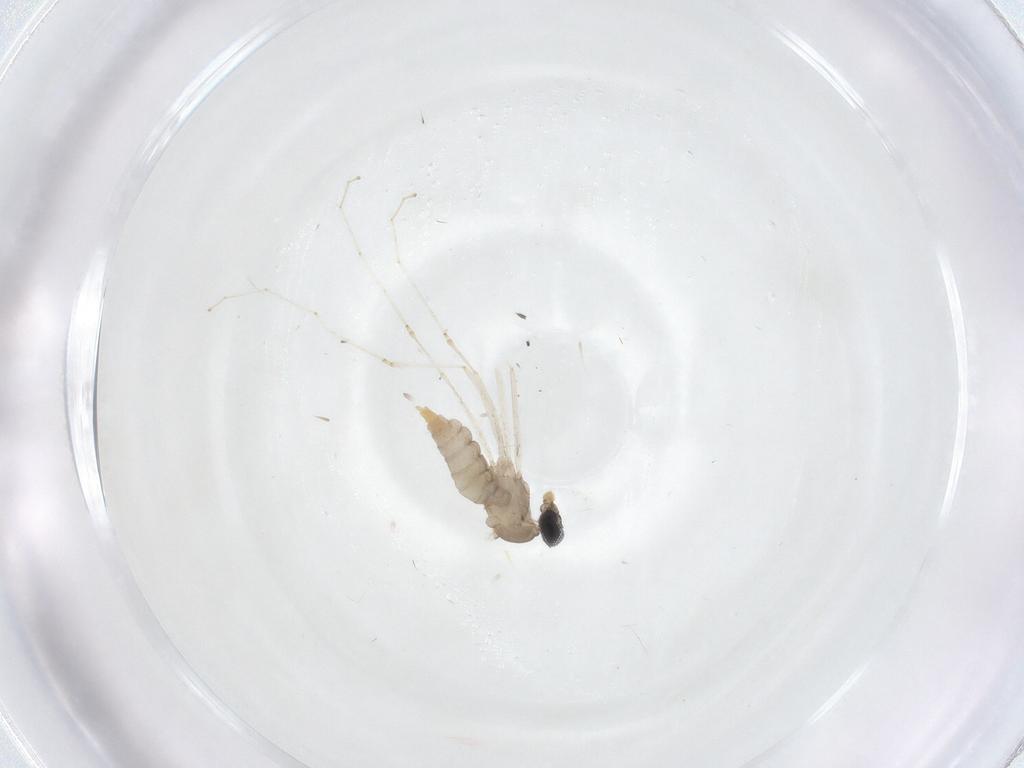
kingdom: Animalia
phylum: Arthropoda
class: Insecta
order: Diptera
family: Cecidomyiidae
